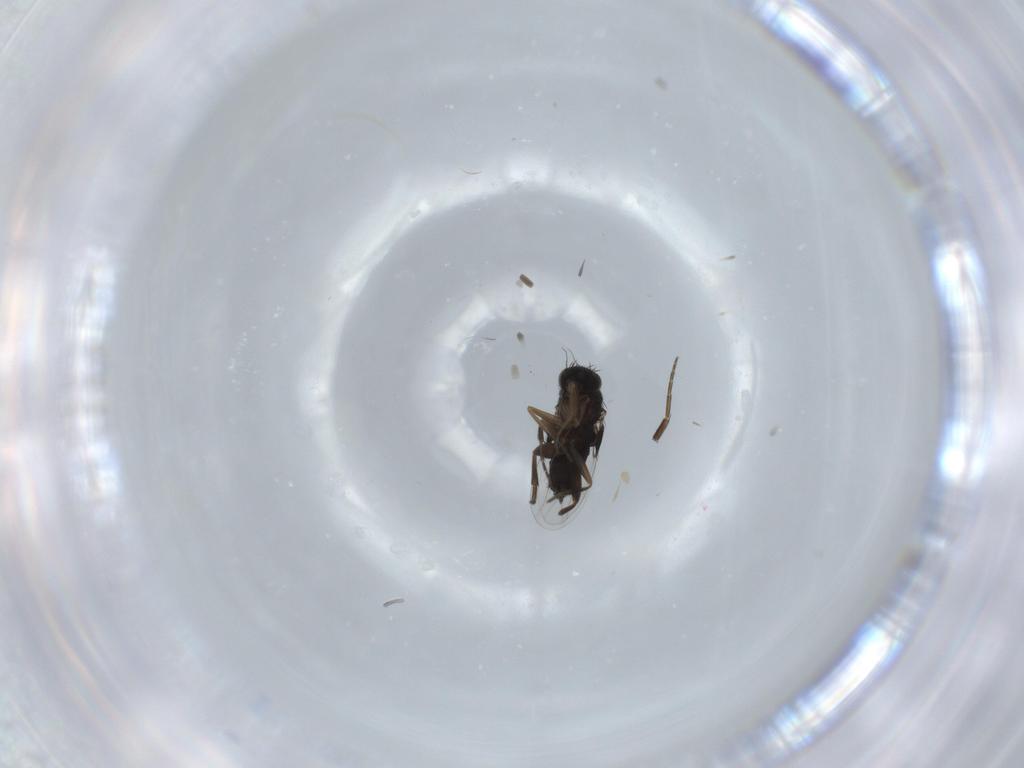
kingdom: Animalia
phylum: Arthropoda
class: Insecta
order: Diptera
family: Phoridae
